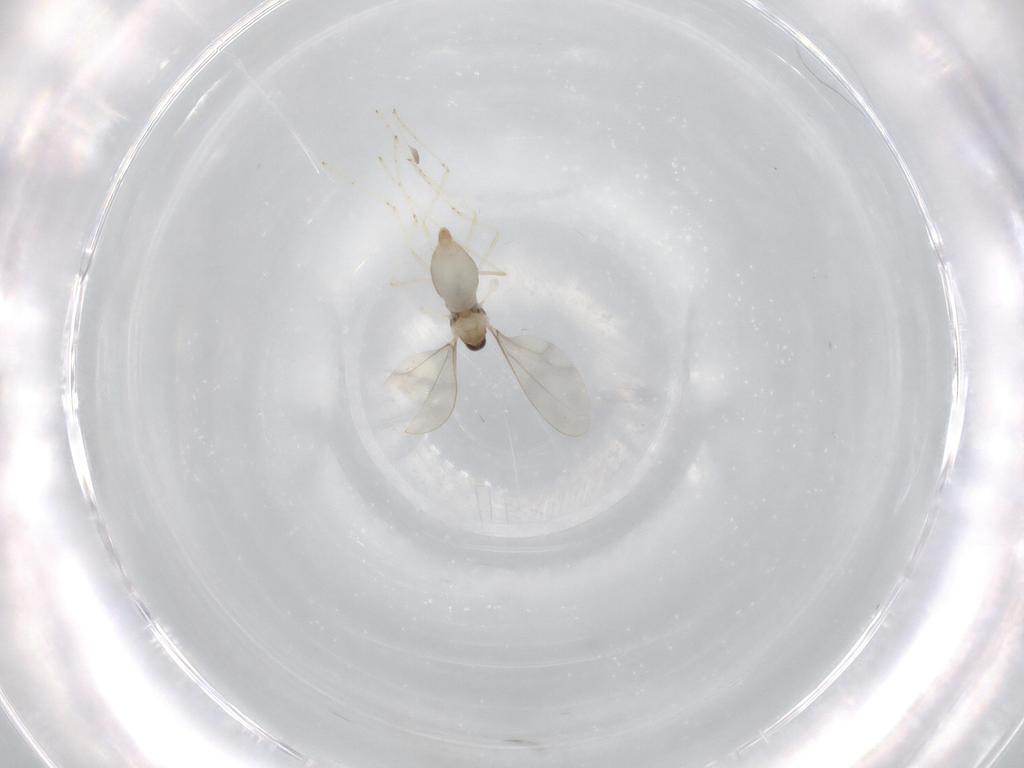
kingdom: Animalia
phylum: Arthropoda
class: Insecta
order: Diptera
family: Cecidomyiidae
